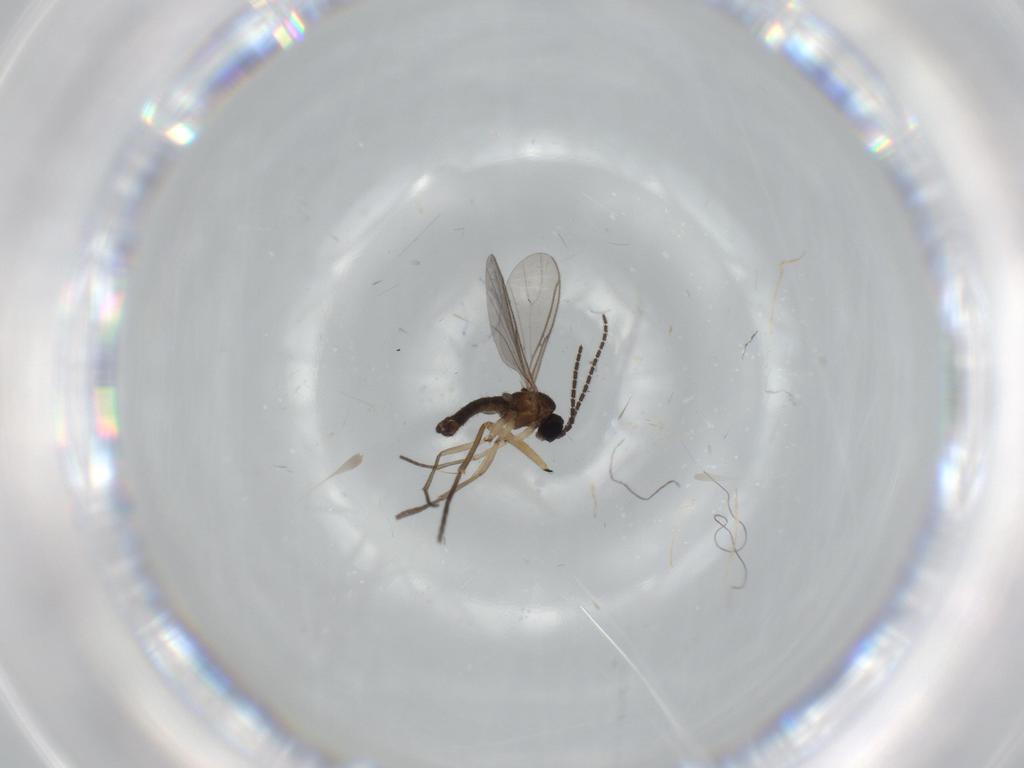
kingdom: Animalia
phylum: Arthropoda
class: Insecta
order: Diptera
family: Sciaridae
